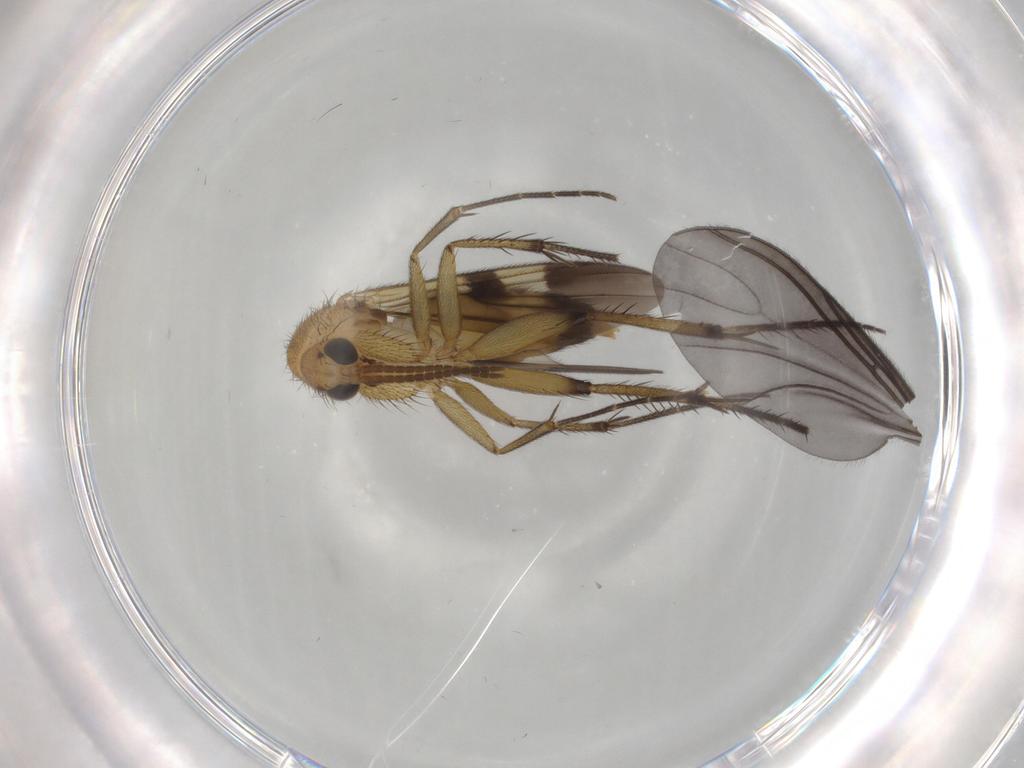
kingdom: Animalia
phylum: Arthropoda
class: Insecta
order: Diptera
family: Mycetophilidae
